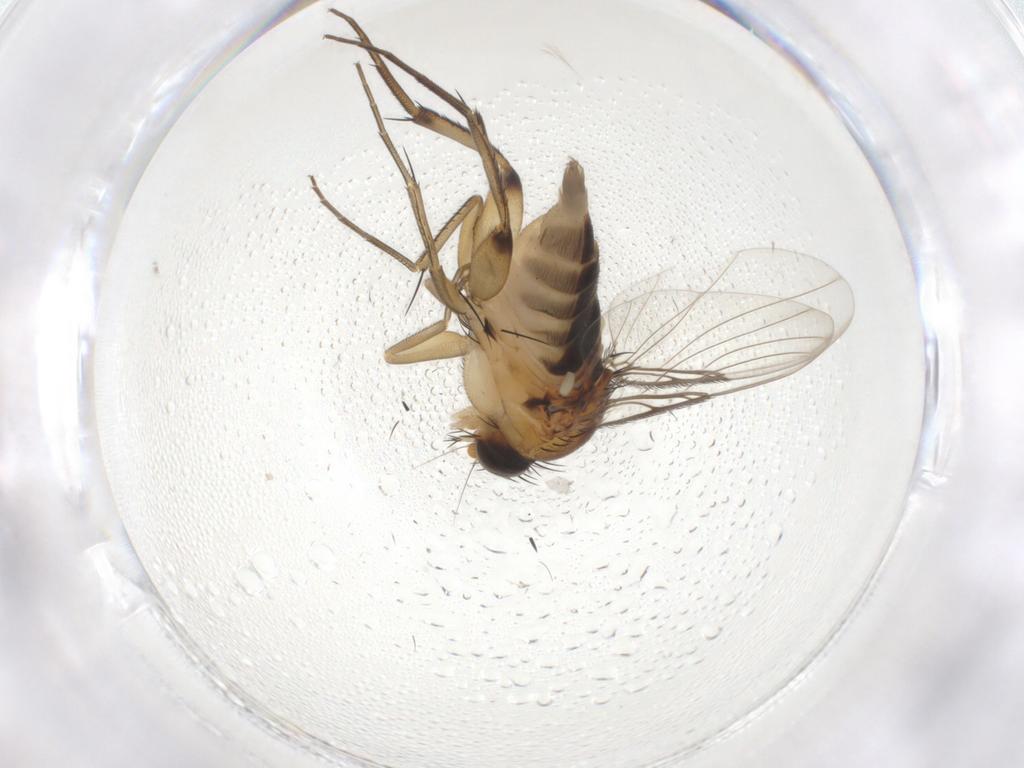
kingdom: Animalia
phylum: Arthropoda
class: Insecta
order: Diptera
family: Phoridae
